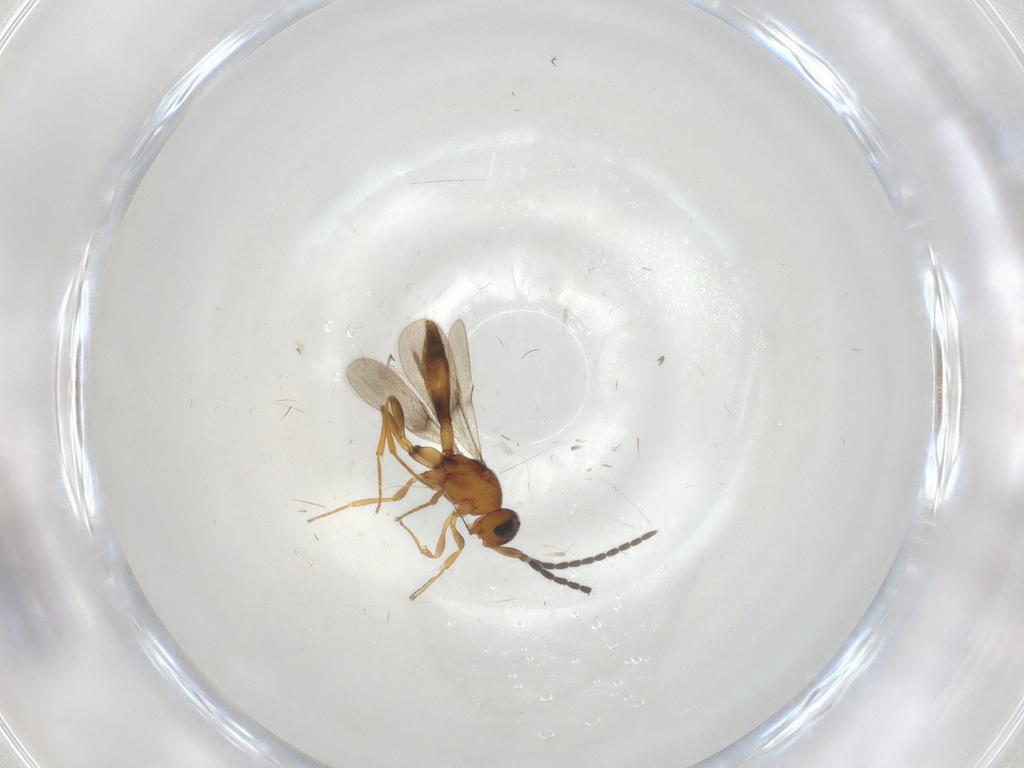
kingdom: Animalia
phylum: Arthropoda
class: Insecta
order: Hymenoptera
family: Scelionidae
